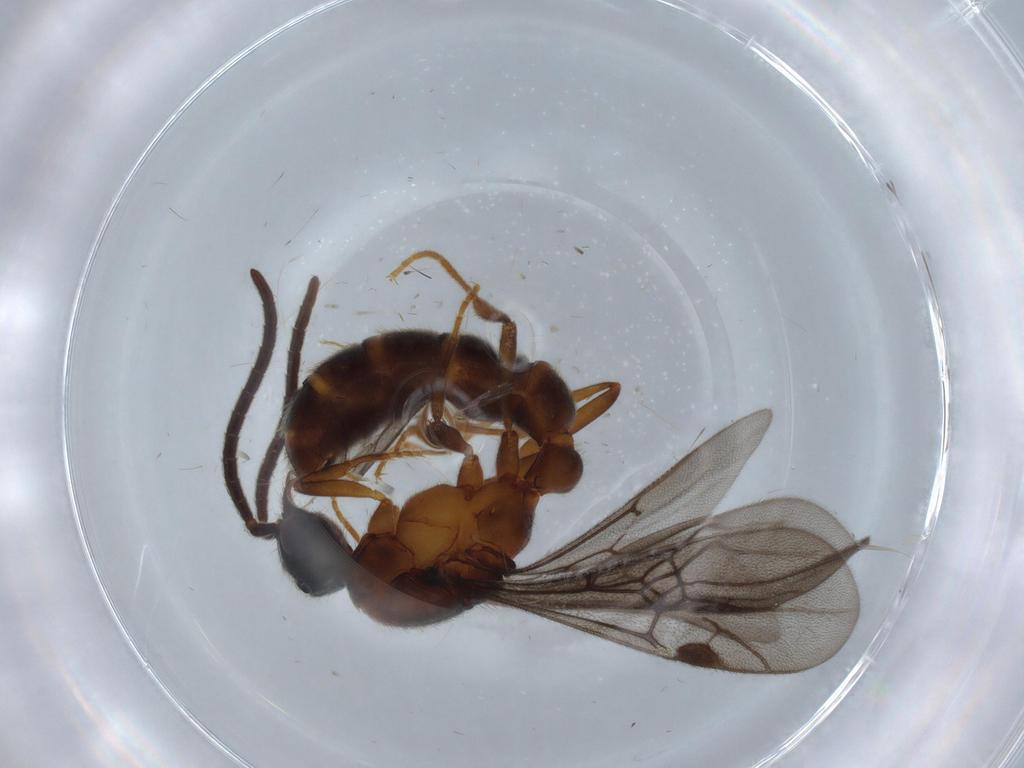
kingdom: Animalia
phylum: Arthropoda
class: Insecta
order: Hymenoptera
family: Formicidae
